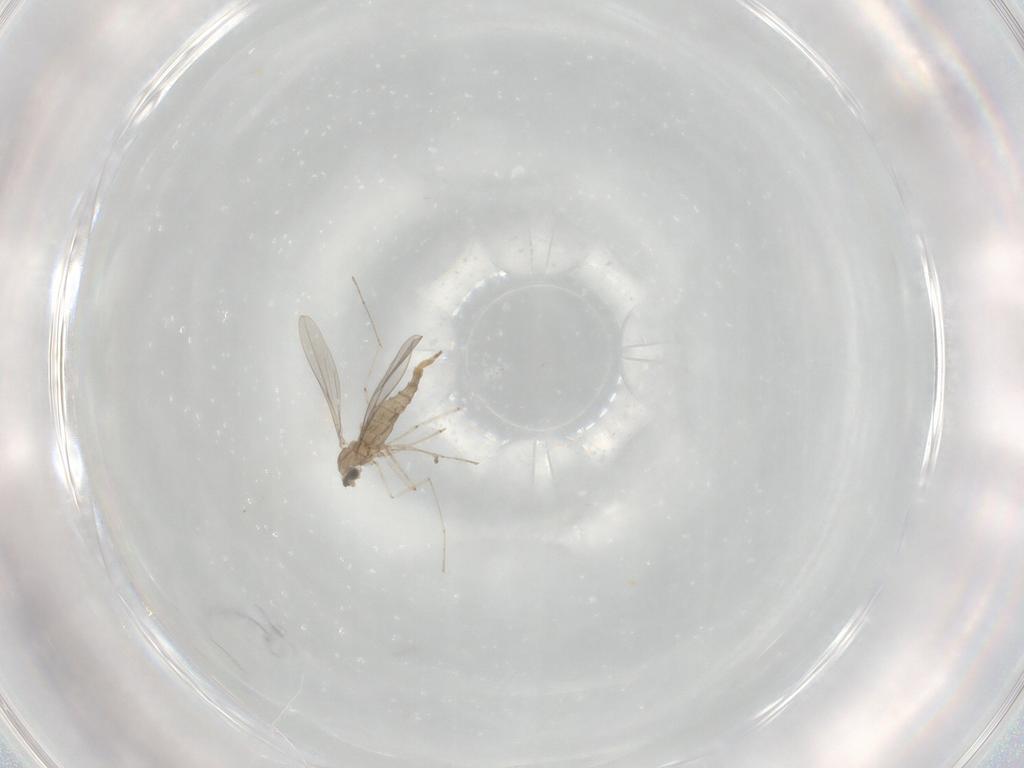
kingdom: Animalia
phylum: Arthropoda
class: Insecta
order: Diptera
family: Cecidomyiidae
